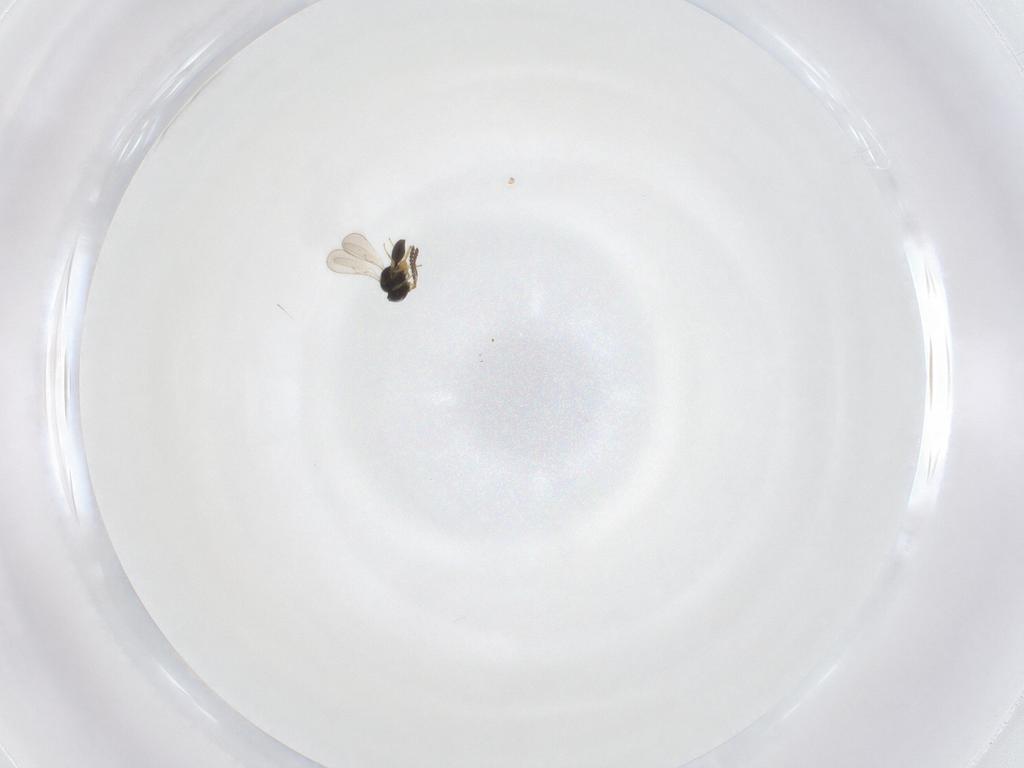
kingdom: Animalia
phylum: Arthropoda
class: Insecta
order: Hymenoptera
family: Scelionidae
